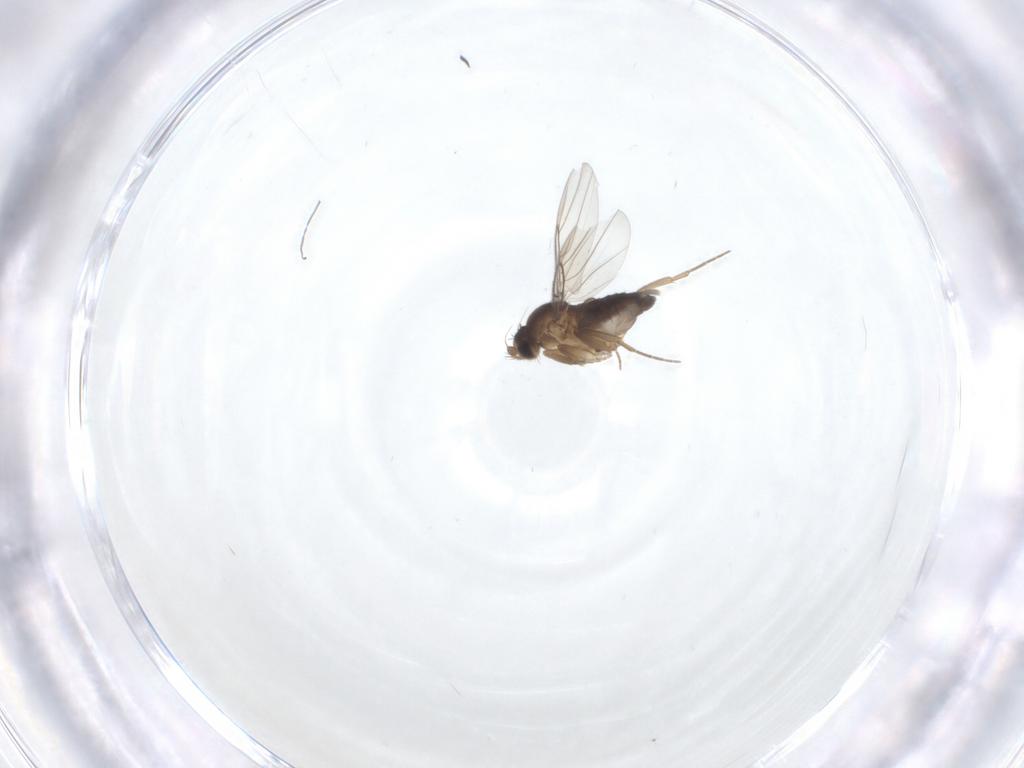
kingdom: Animalia
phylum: Arthropoda
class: Insecta
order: Diptera
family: Phoridae
